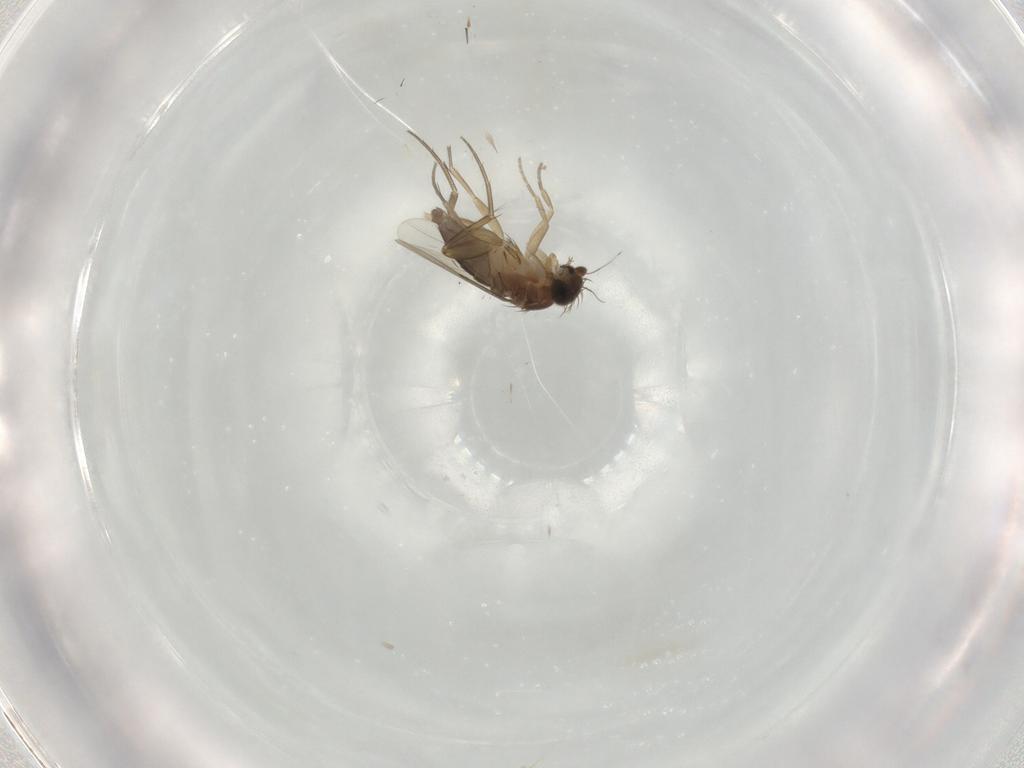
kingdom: Animalia
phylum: Arthropoda
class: Insecta
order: Diptera
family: Phoridae
